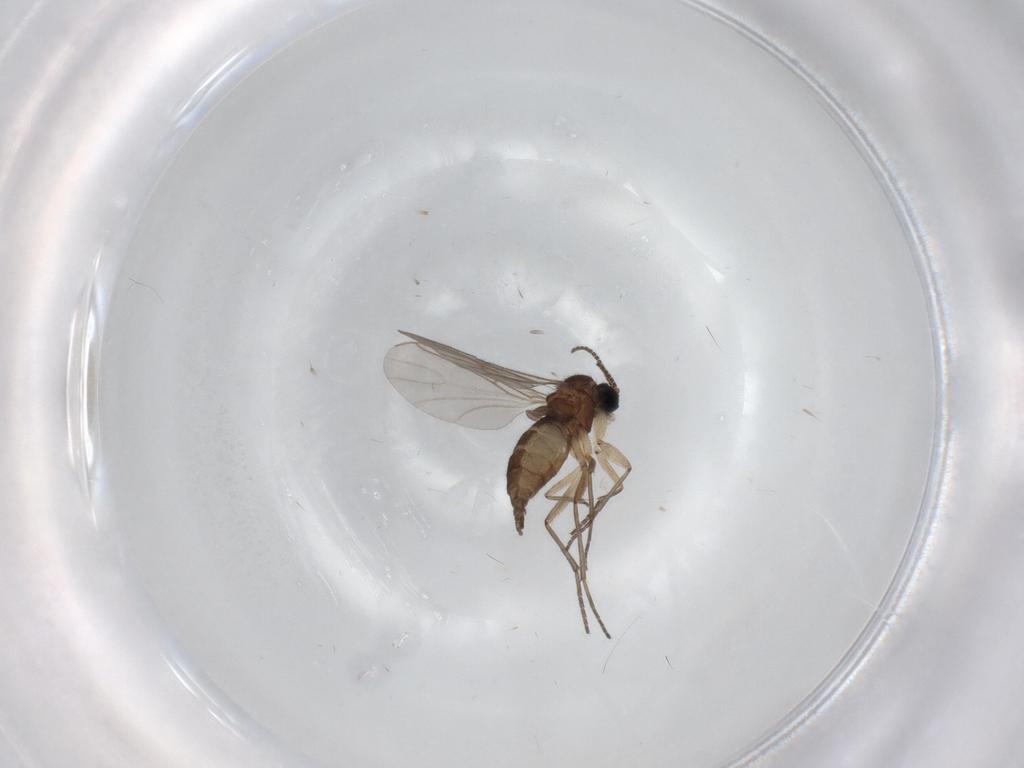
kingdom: Animalia
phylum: Arthropoda
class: Insecta
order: Diptera
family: Sciaridae
